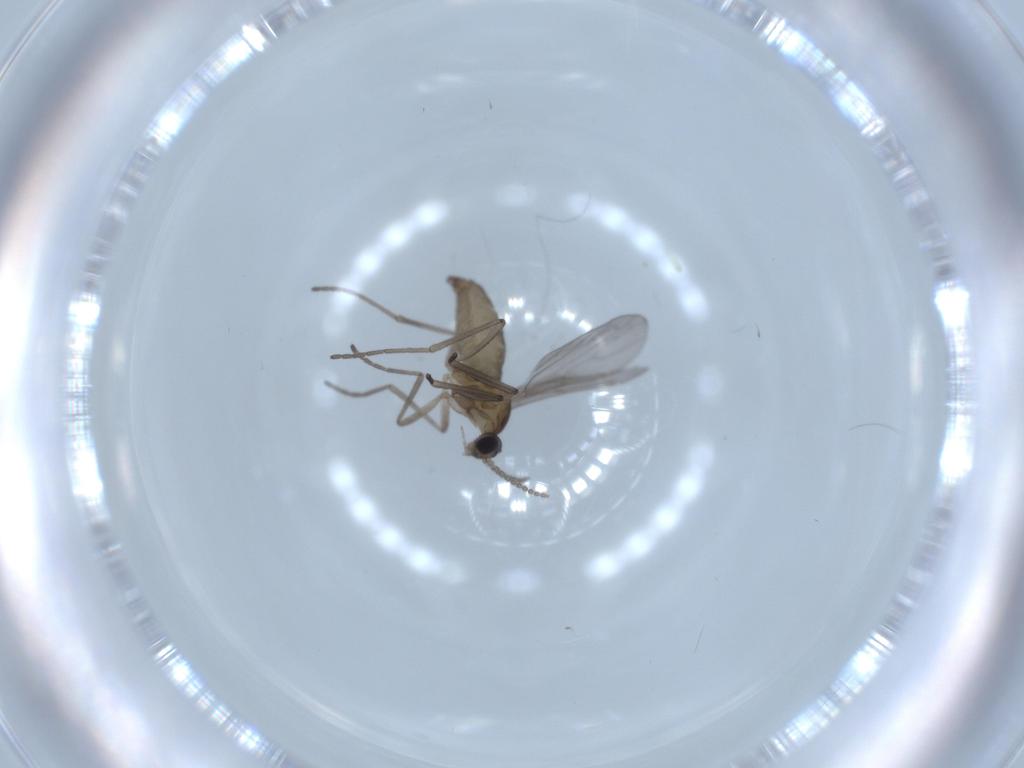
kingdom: Animalia
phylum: Arthropoda
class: Insecta
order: Diptera
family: Cecidomyiidae
